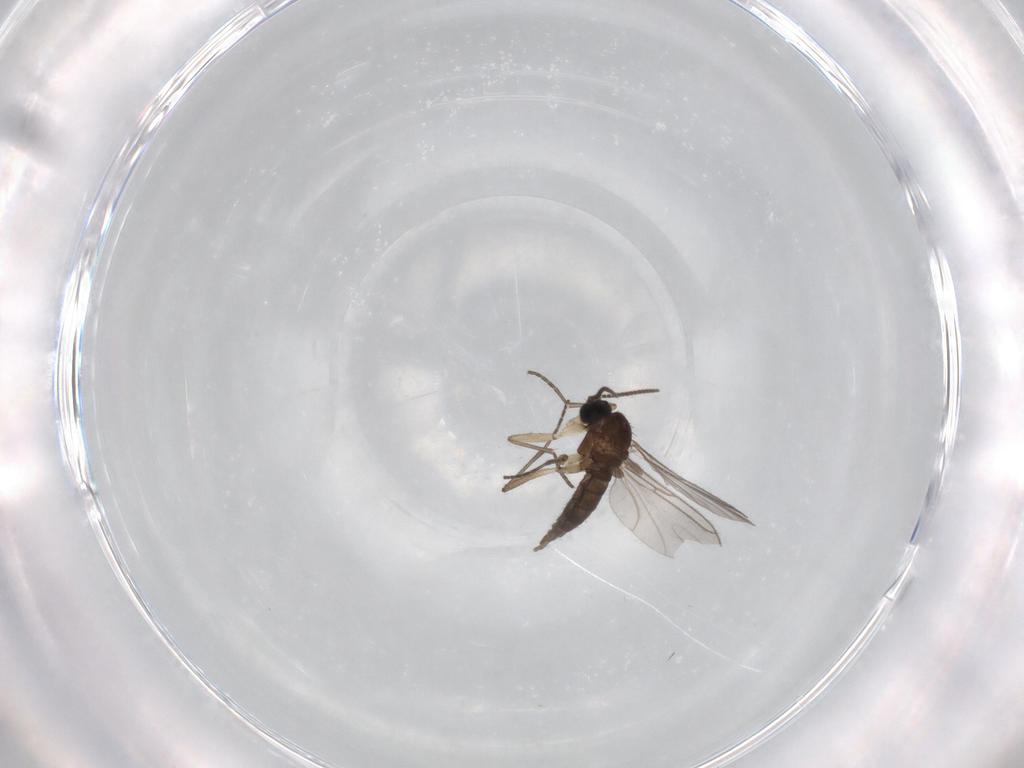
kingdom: Animalia
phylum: Arthropoda
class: Insecta
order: Diptera
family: Sciaridae
